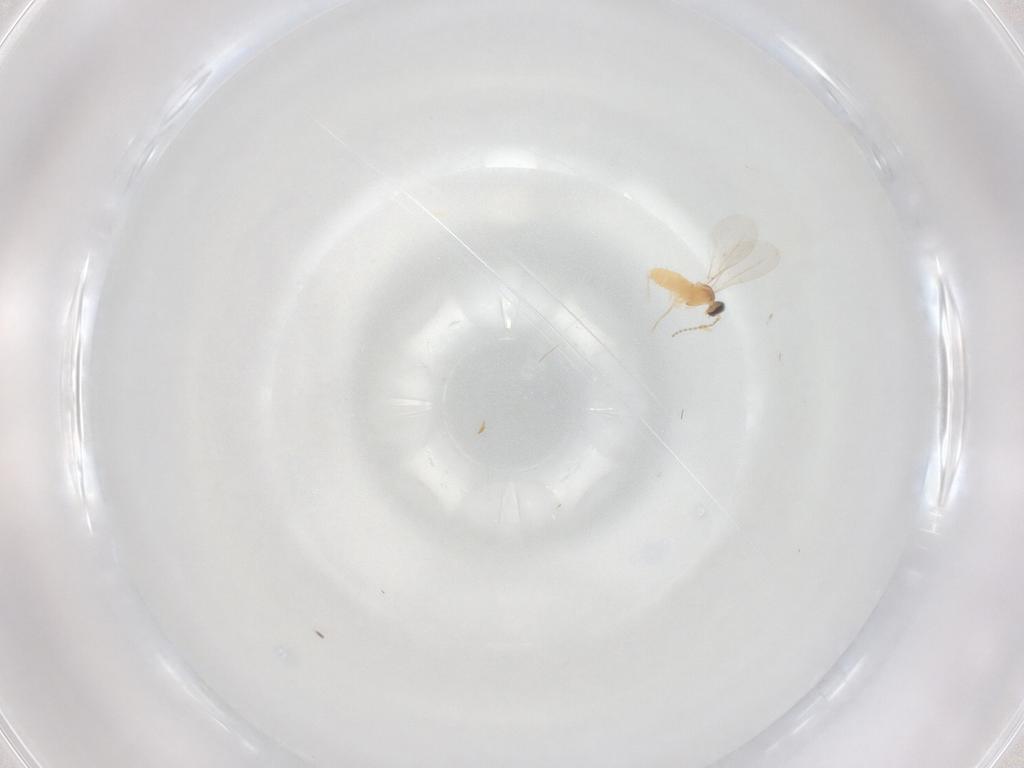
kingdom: Animalia
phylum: Arthropoda
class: Insecta
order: Diptera
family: Cecidomyiidae
